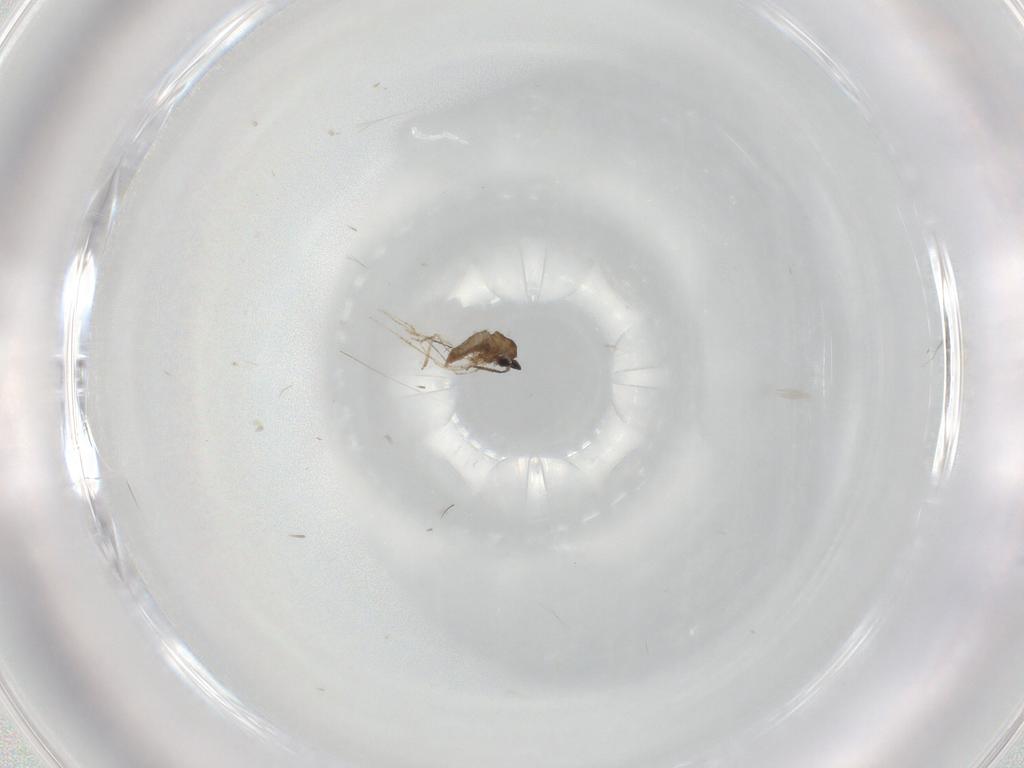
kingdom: Animalia
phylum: Arthropoda
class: Insecta
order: Diptera
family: Cecidomyiidae
